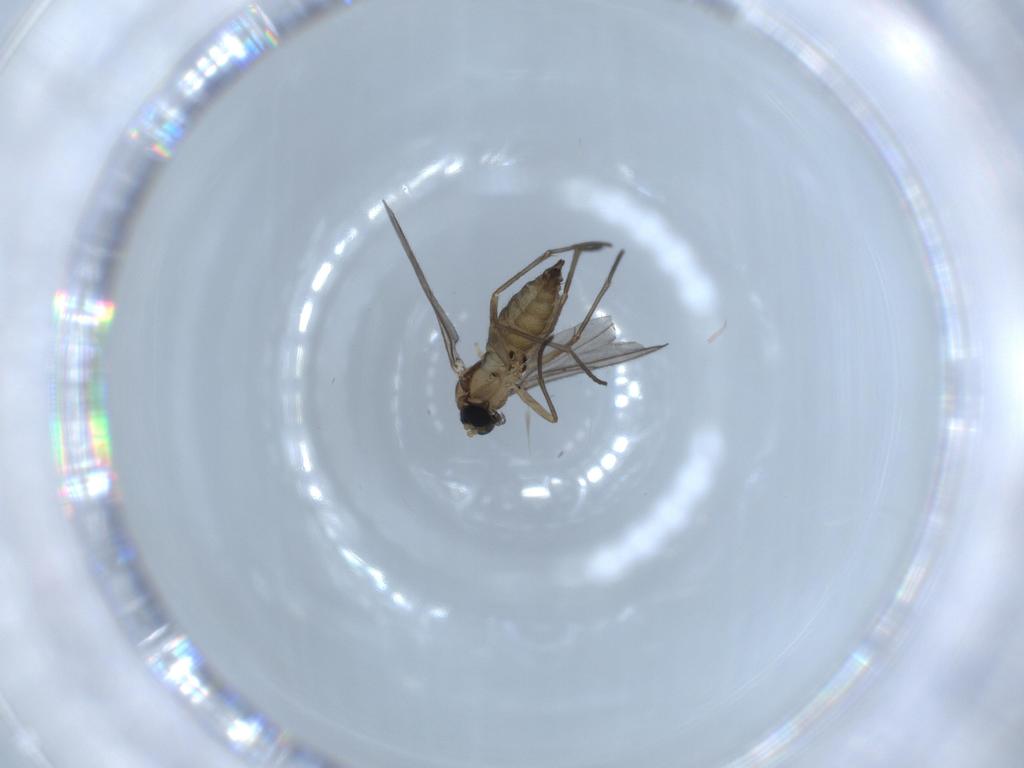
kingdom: Animalia
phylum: Arthropoda
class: Insecta
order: Diptera
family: Sciaridae
